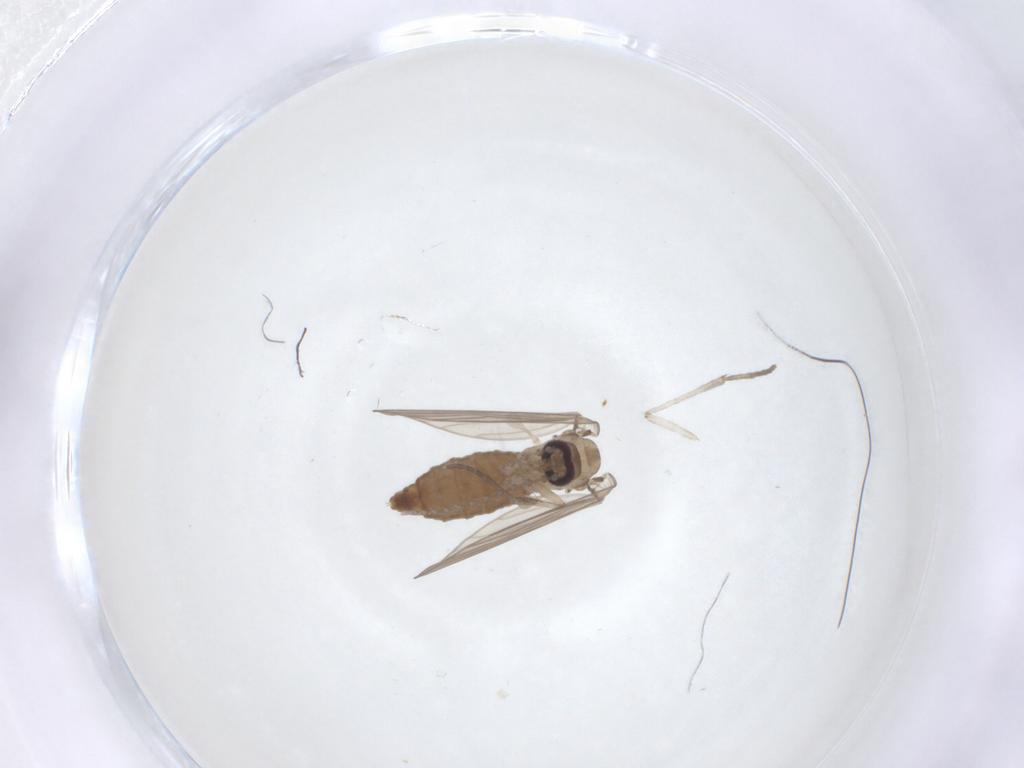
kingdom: Animalia
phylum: Arthropoda
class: Insecta
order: Diptera
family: Psychodidae
